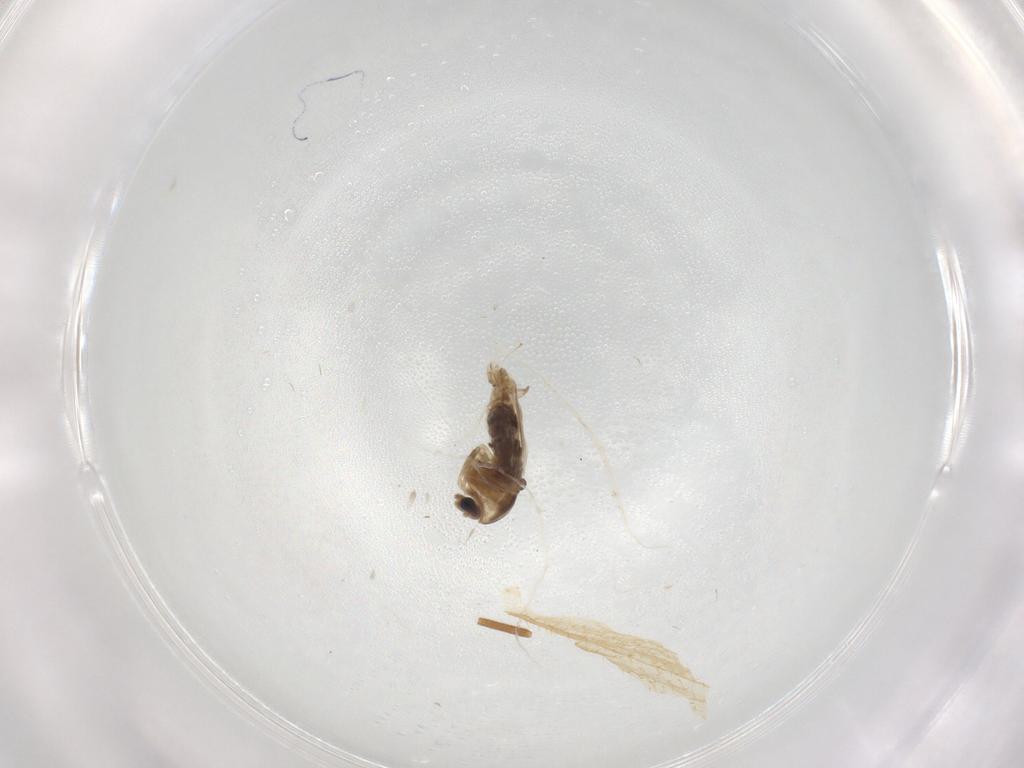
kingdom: Animalia
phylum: Arthropoda
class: Insecta
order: Diptera
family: Chironomidae
